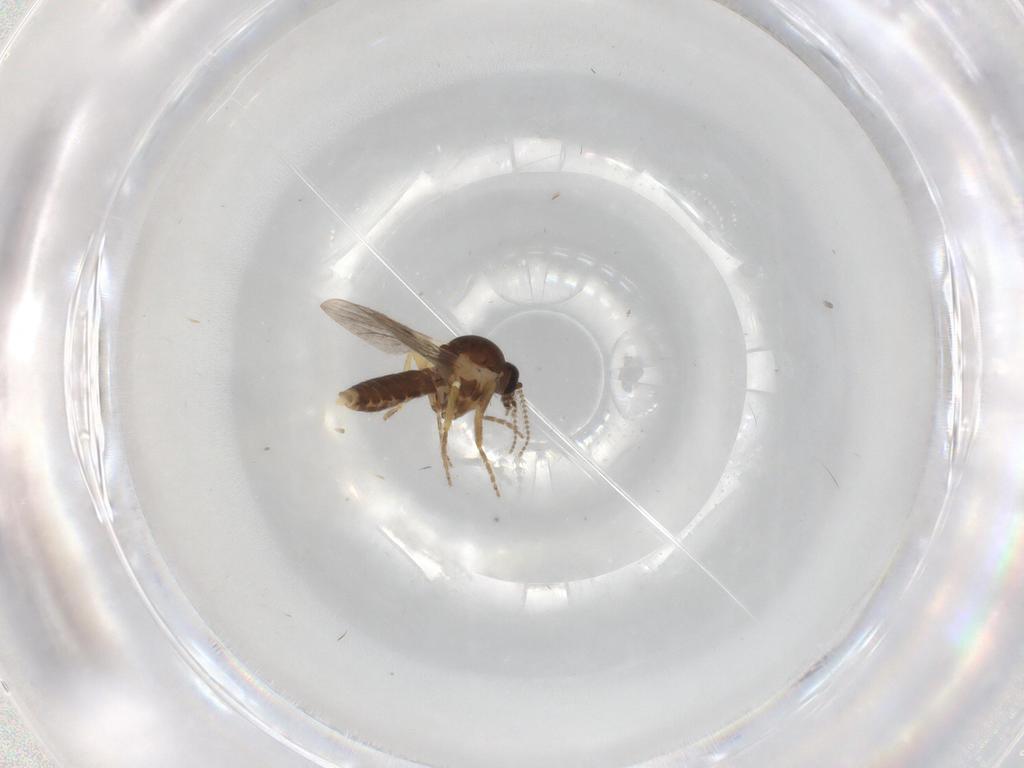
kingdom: Animalia
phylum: Arthropoda
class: Insecta
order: Diptera
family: Ceratopogonidae
